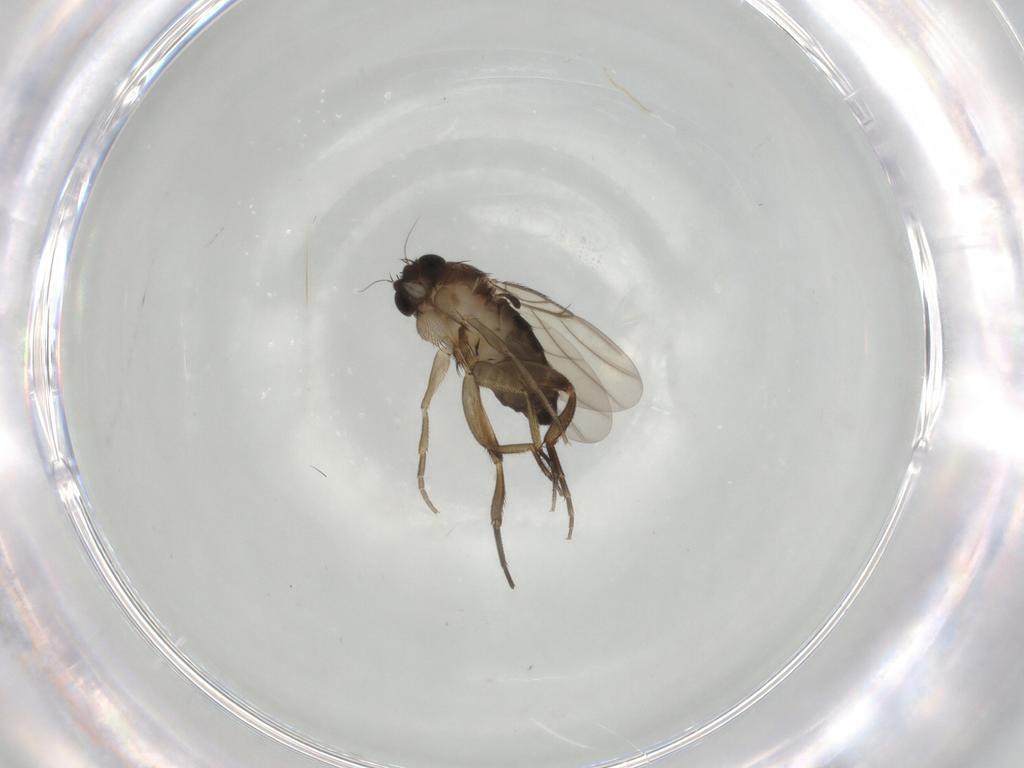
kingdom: Animalia
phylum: Arthropoda
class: Insecta
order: Diptera
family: Phoridae
